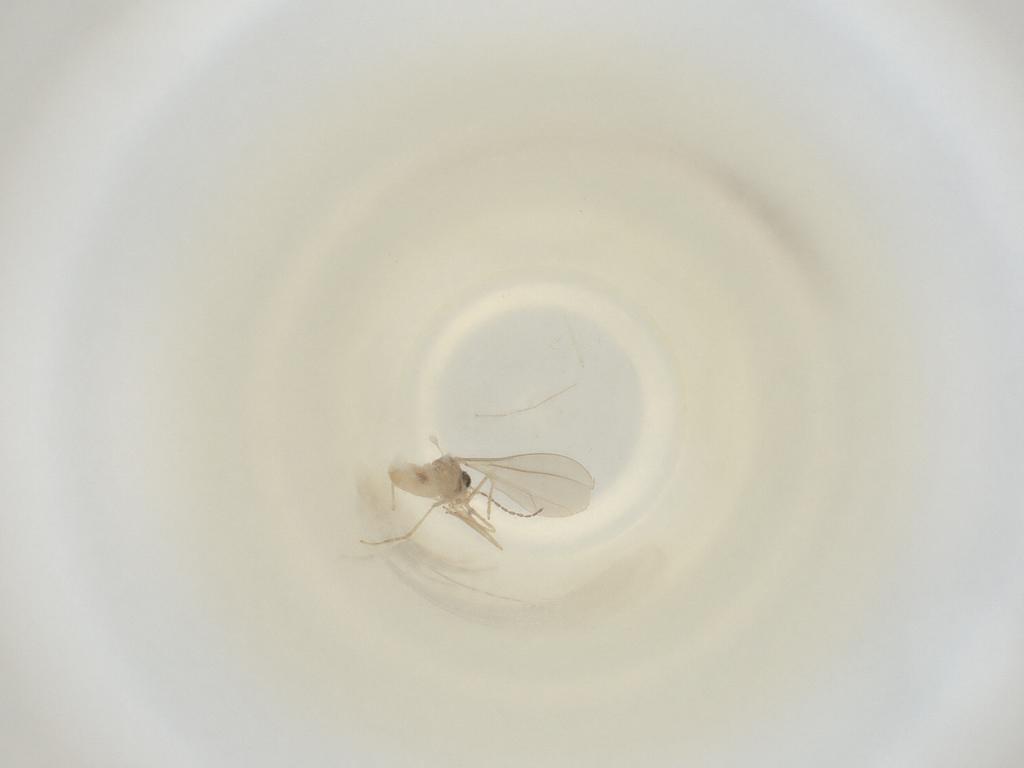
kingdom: Animalia
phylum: Arthropoda
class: Insecta
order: Diptera
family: Cecidomyiidae
